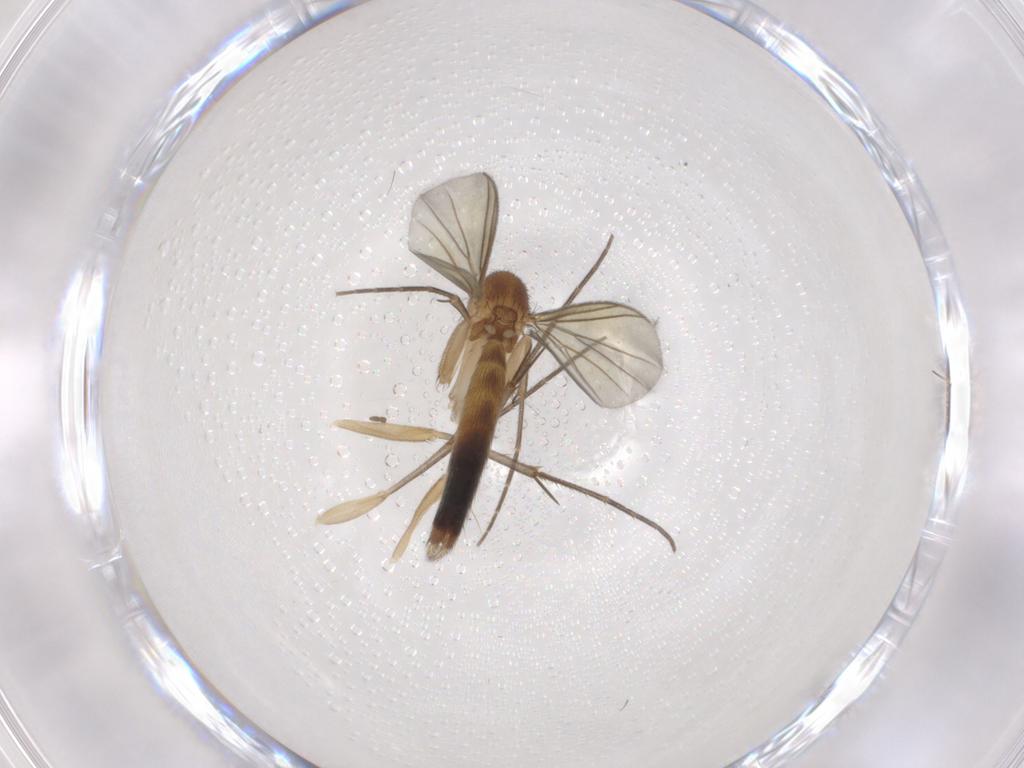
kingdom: Animalia
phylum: Arthropoda
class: Insecta
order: Diptera
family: Mycetophilidae
